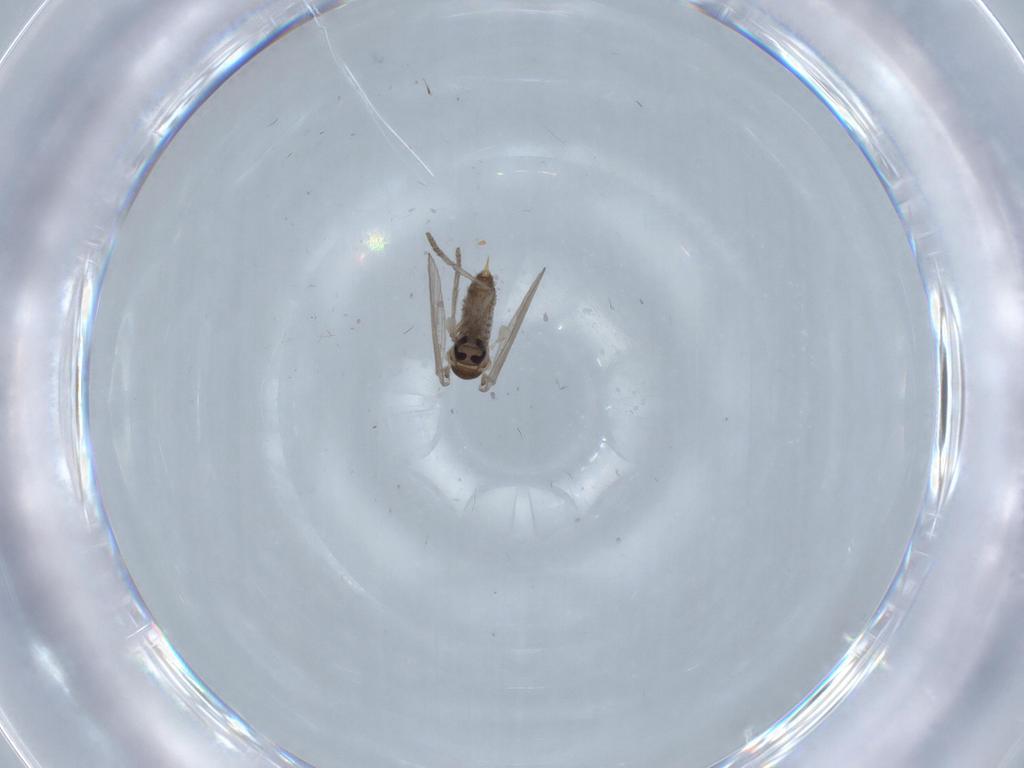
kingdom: Animalia
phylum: Arthropoda
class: Insecta
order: Diptera
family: Psychodidae
